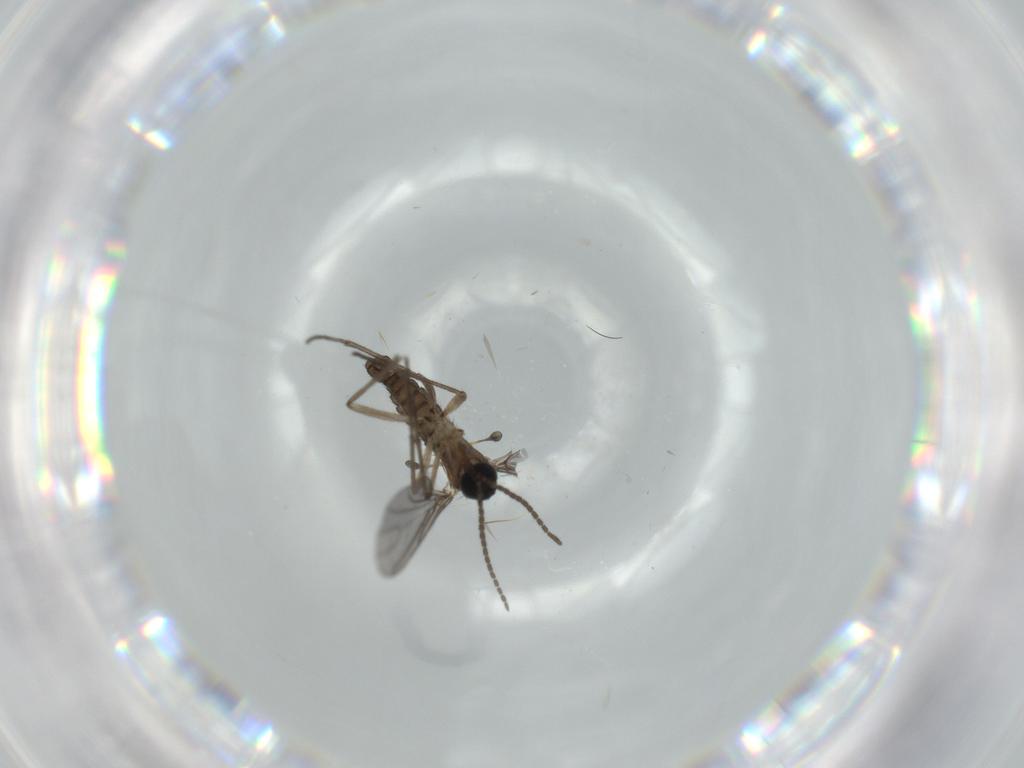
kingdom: Animalia
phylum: Arthropoda
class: Insecta
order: Diptera
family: Sciaridae
